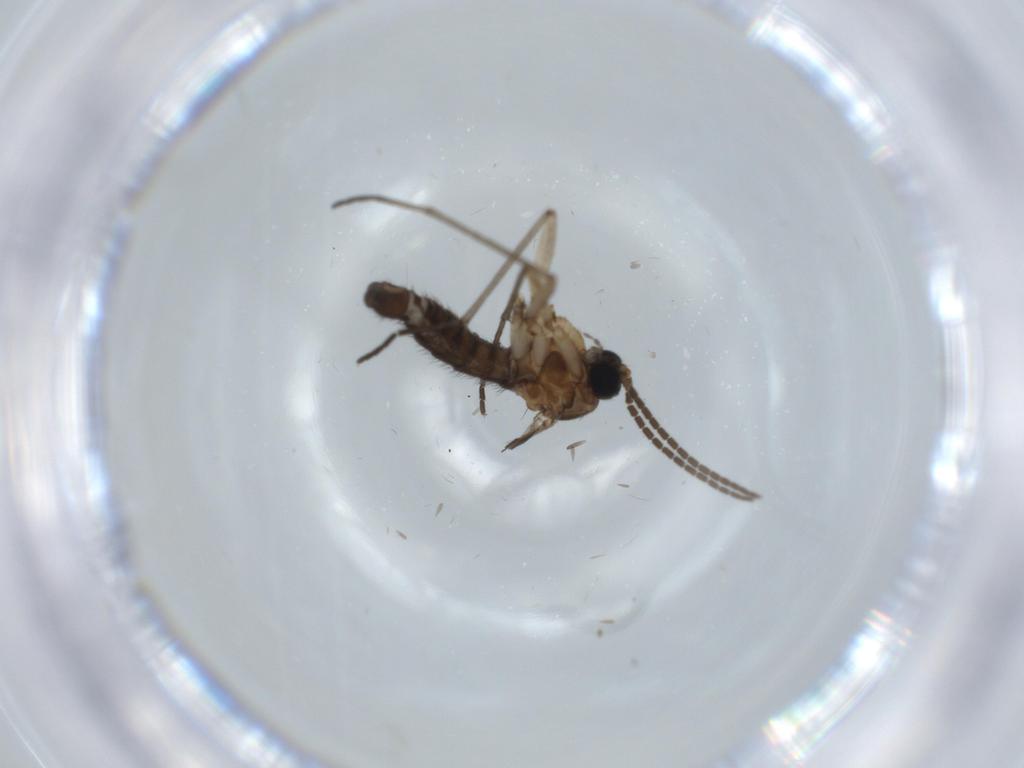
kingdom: Animalia
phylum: Arthropoda
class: Insecta
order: Diptera
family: Sciaridae
